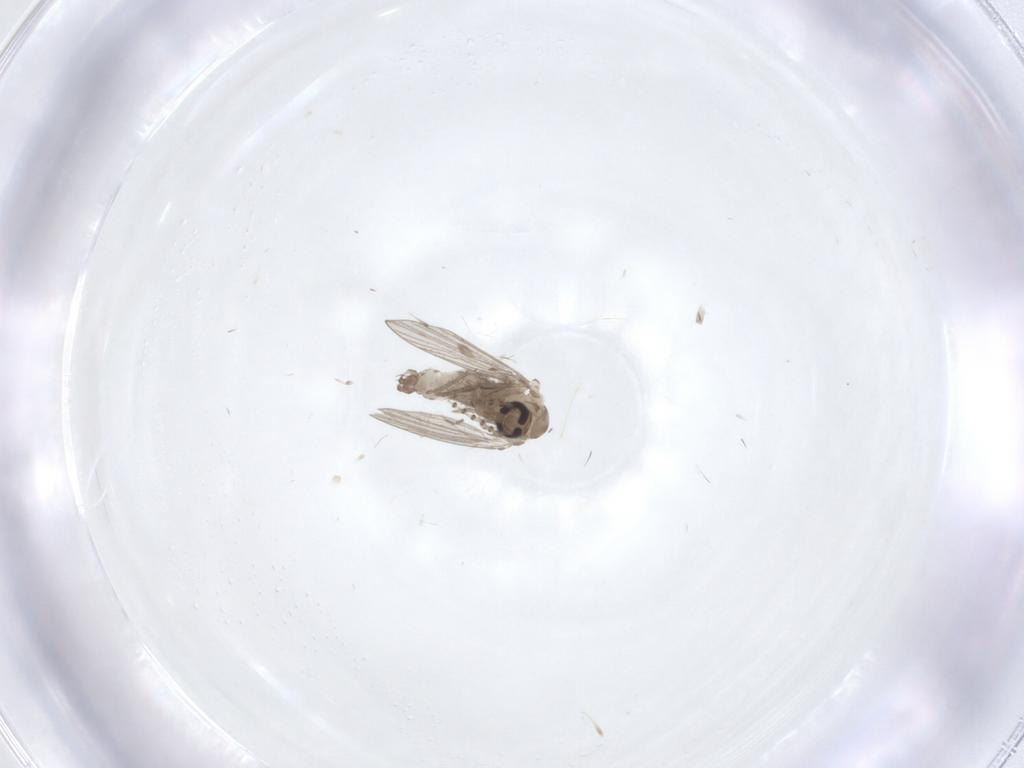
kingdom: Animalia
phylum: Arthropoda
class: Insecta
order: Diptera
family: Psychodidae
